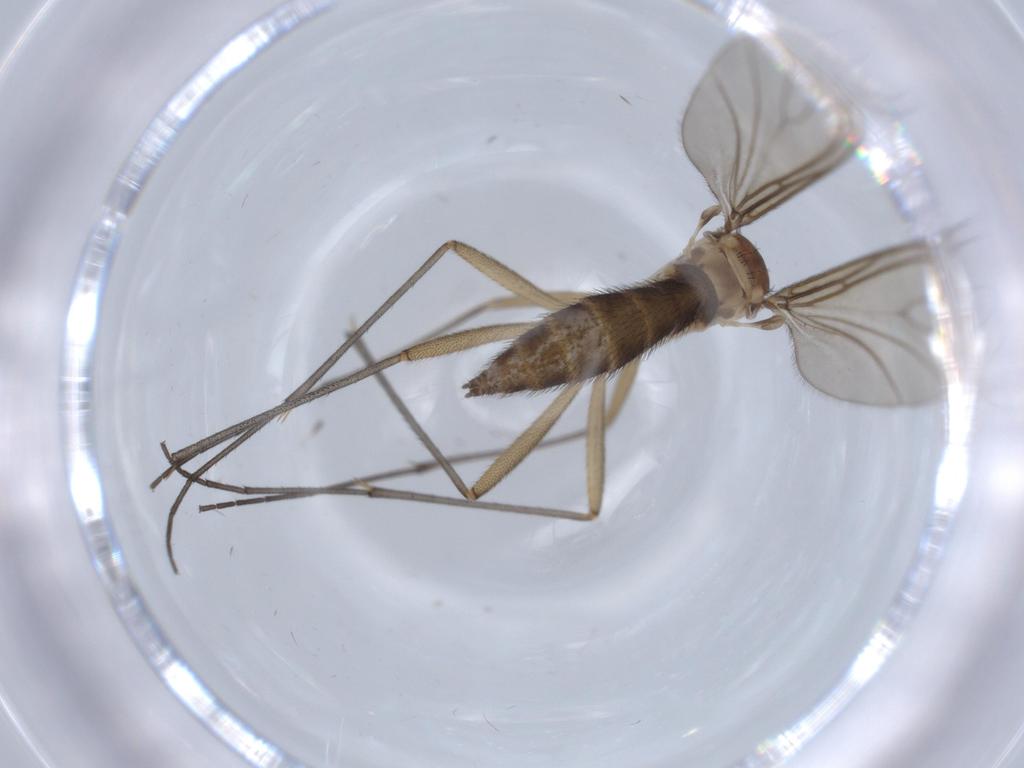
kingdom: Animalia
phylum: Arthropoda
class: Insecta
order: Diptera
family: Sciaridae
